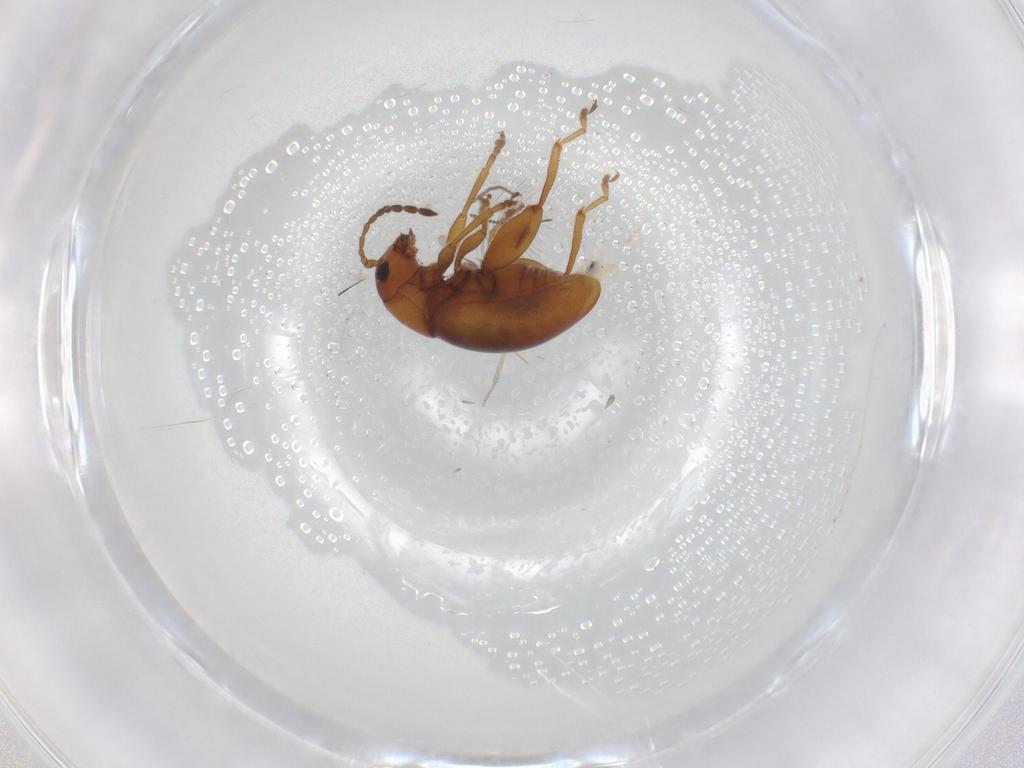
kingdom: Animalia
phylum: Arthropoda
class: Insecta
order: Coleoptera
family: Chrysomelidae
